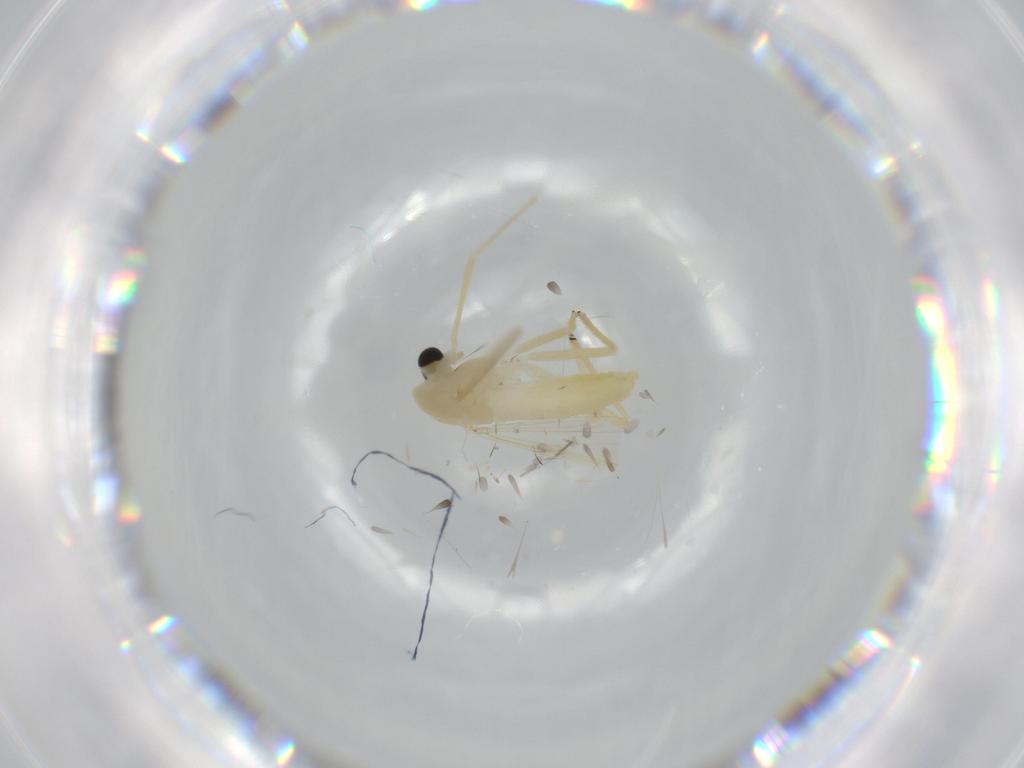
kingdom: Animalia
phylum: Arthropoda
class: Insecta
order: Diptera
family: Chironomidae
